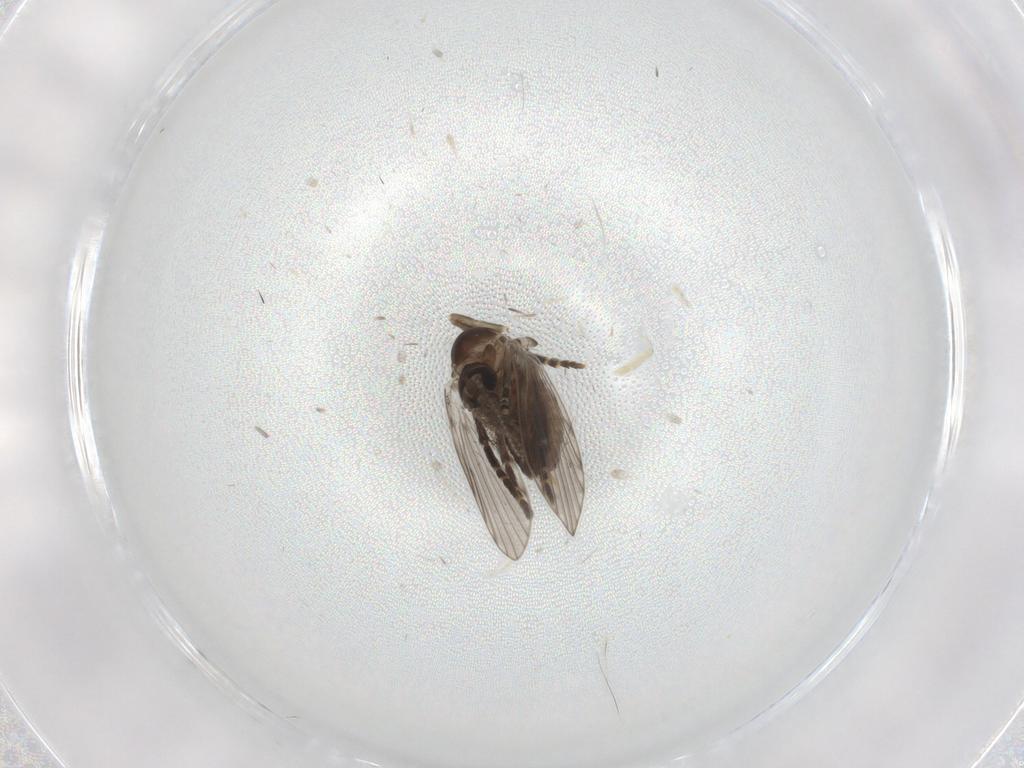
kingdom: Animalia
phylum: Arthropoda
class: Insecta
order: Diptera
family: Psychodidae
